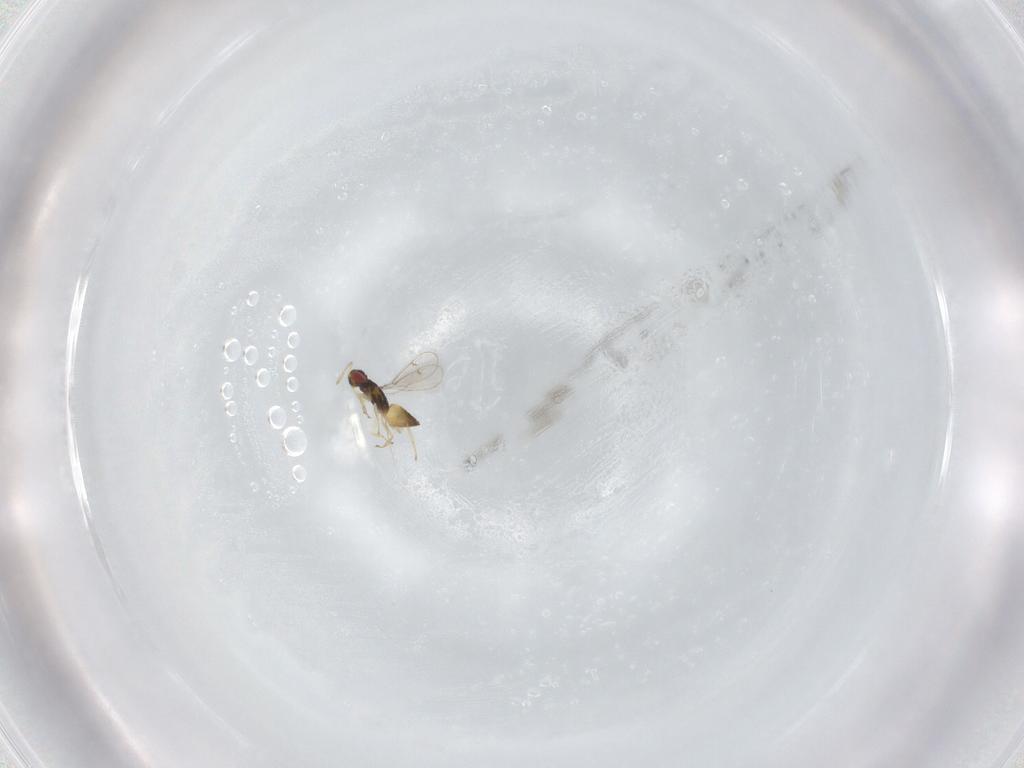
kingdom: Animalia
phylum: Arthropoda
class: Insecta
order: Hymenoptera
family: Eulophidae
